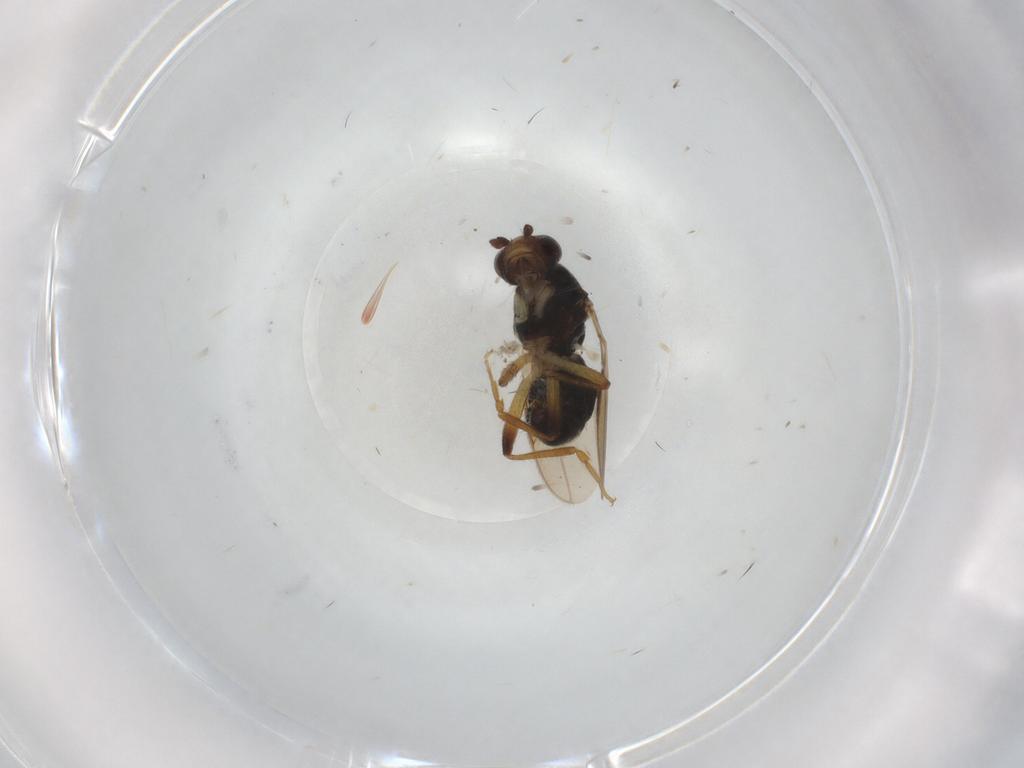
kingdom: Animalia
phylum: Arthropoda
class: Insecta
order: Diptera
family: Sphaeroceridae
